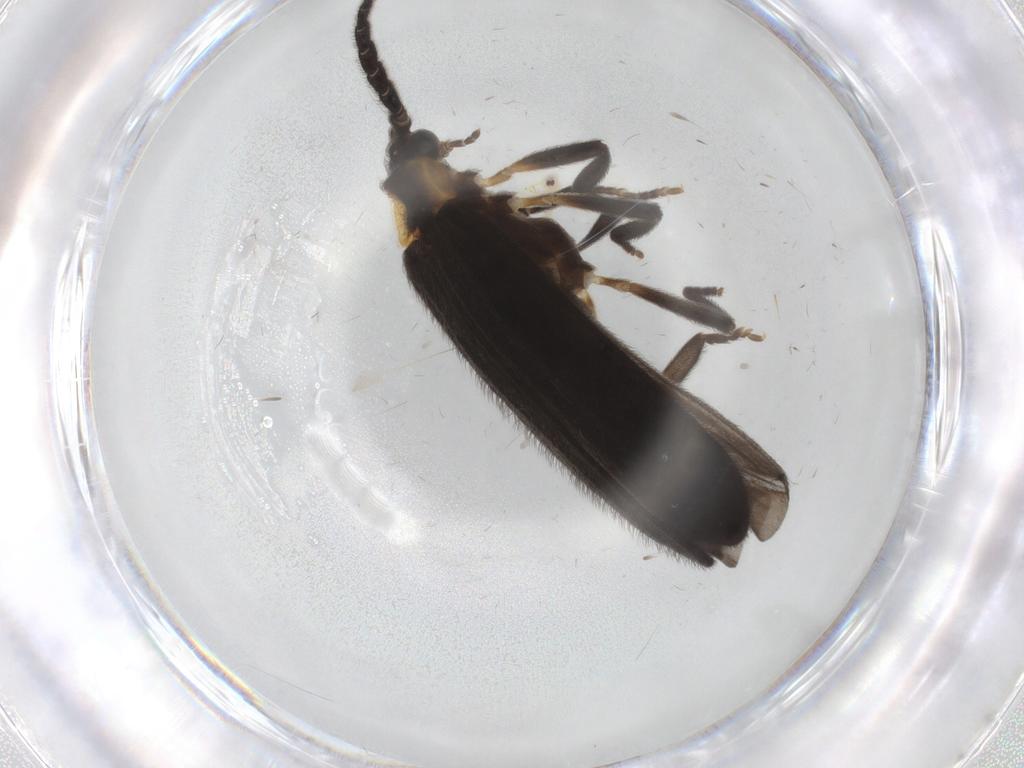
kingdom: Animalia
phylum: Arthropoda
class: Insecta
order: Coleoptera
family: Lycidae
